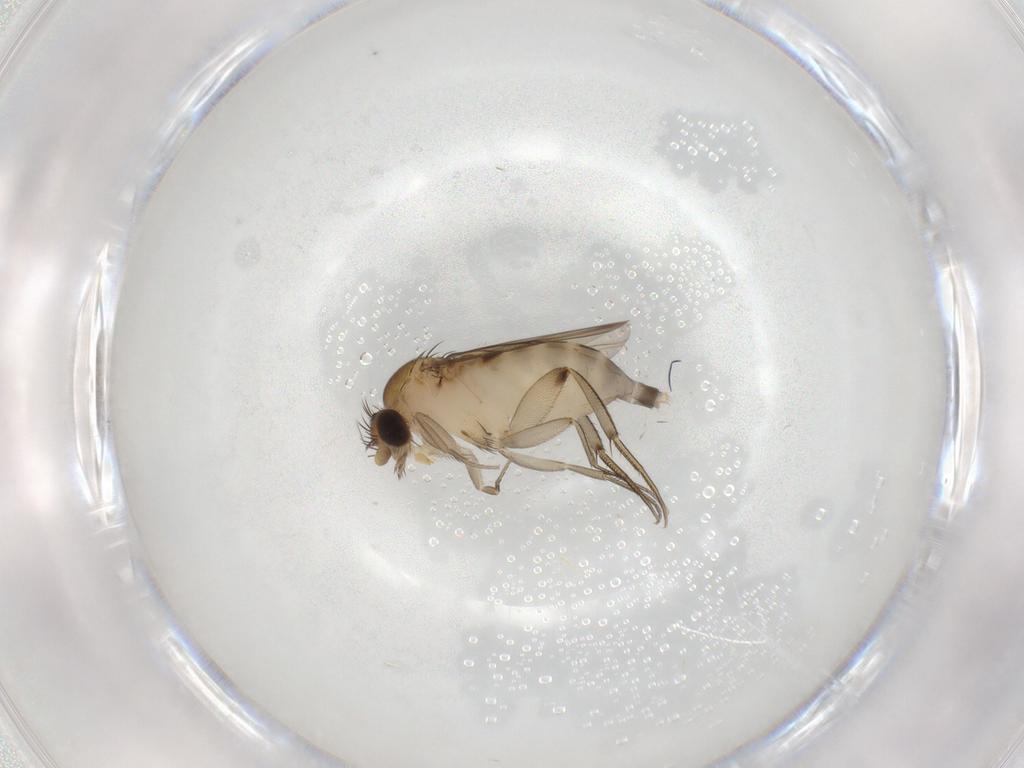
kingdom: Animalia
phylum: Arthropoda
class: Insecta
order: Diptera
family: Phoridae
